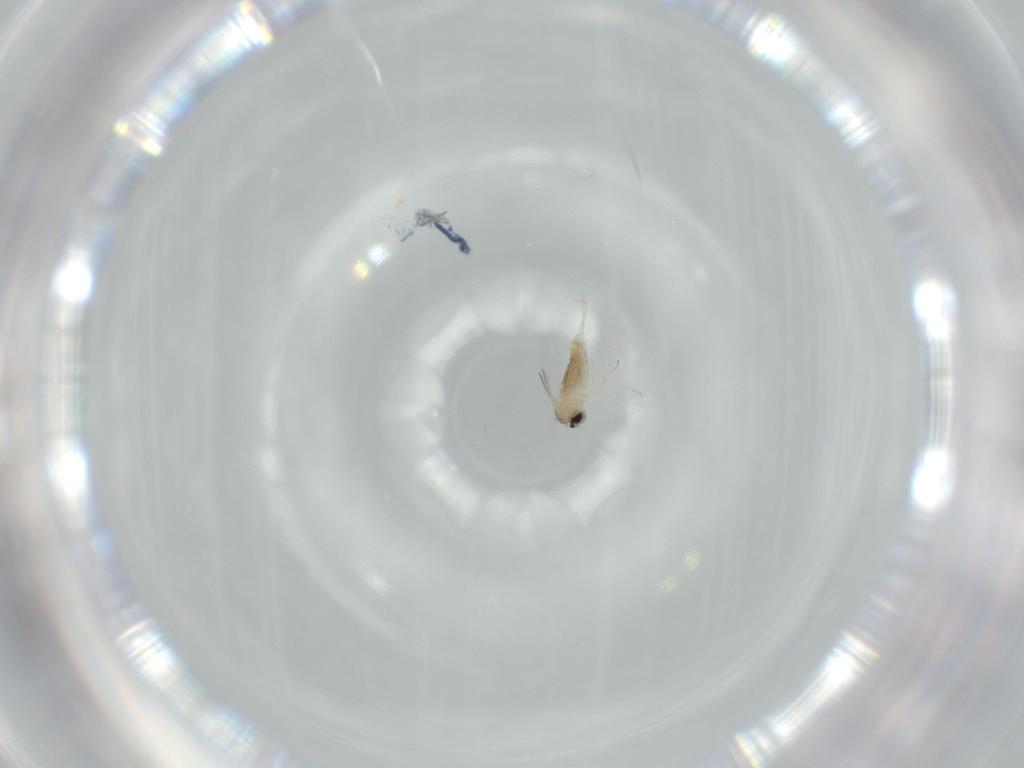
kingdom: Animalia
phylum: Arthropoda
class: Insecta
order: Diptera
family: Cecidomyiidae
